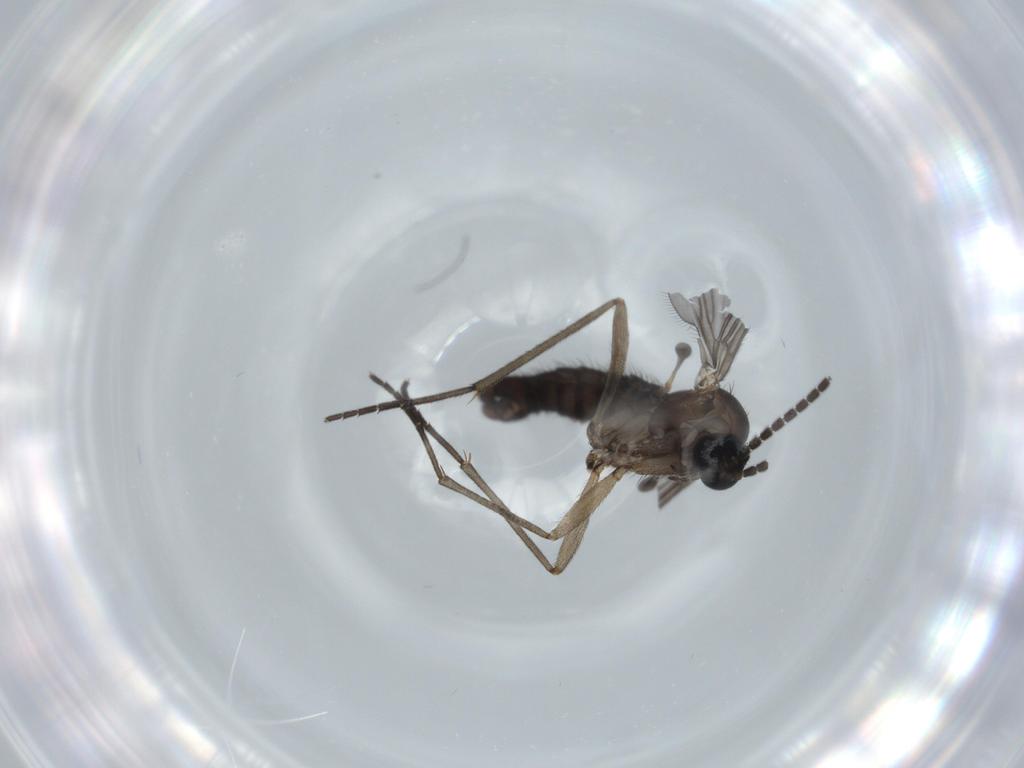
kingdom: Animalia
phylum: Arthropoda
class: Insecta
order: Diptera
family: Sciaridae
